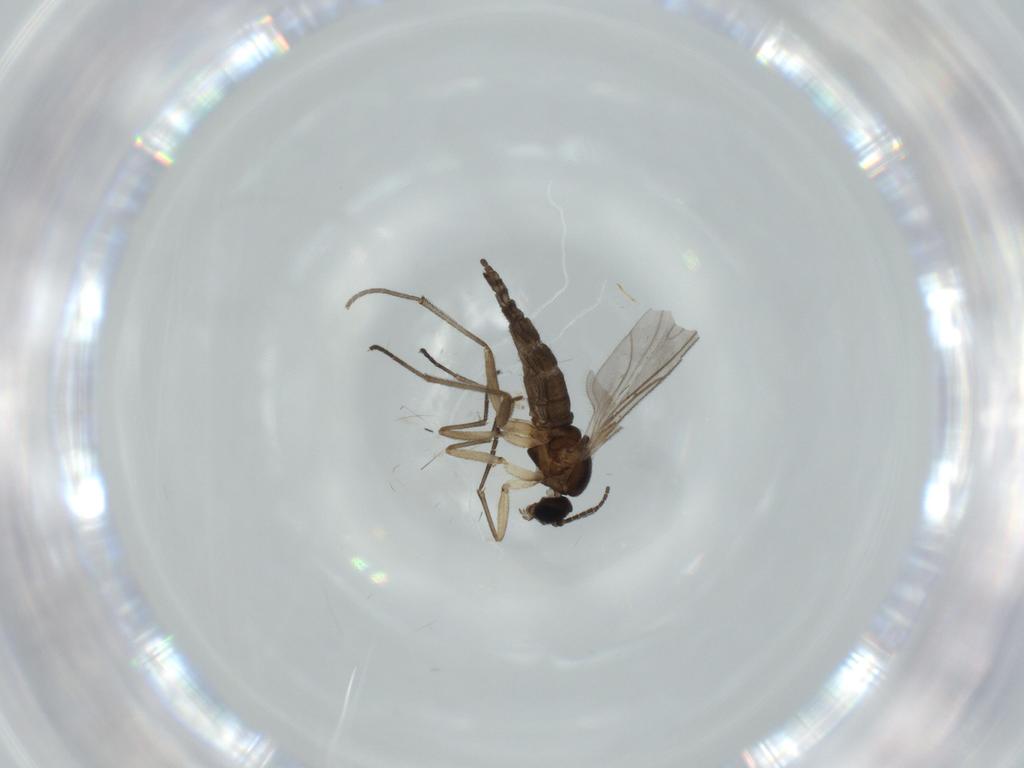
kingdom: Animalia
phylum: Arthropoda
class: Insecta
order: Diptera
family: Sciaridae
